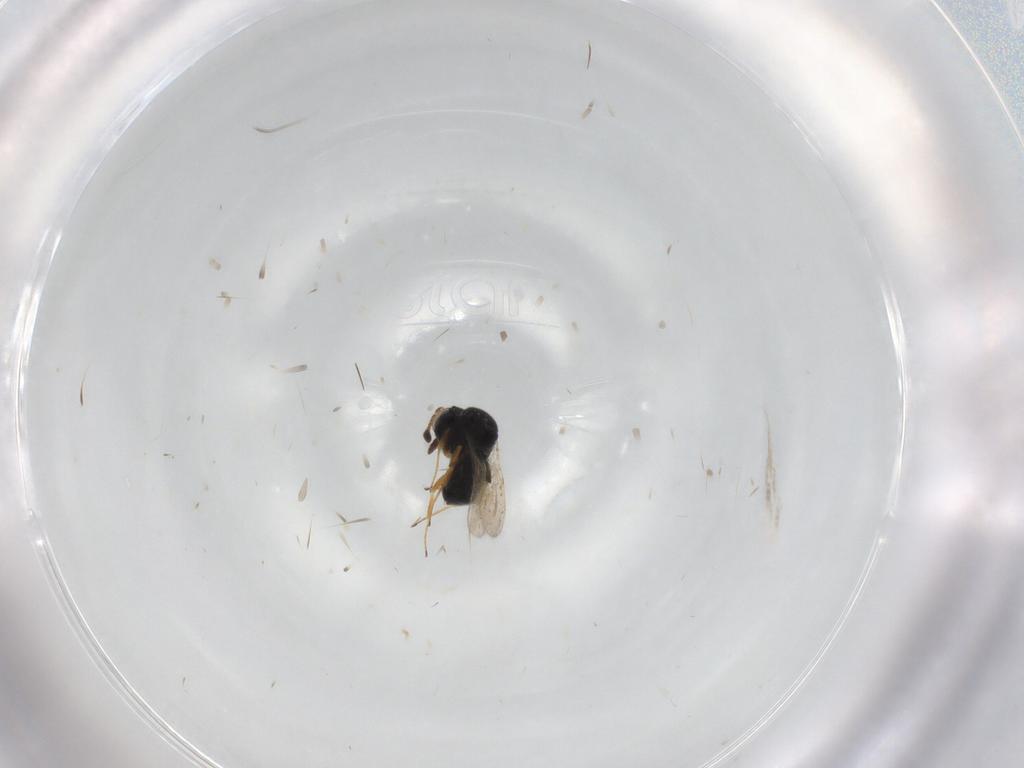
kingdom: Animalia
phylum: Arthropoda
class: Insecta
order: Hymenoptera
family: Scelionidae
